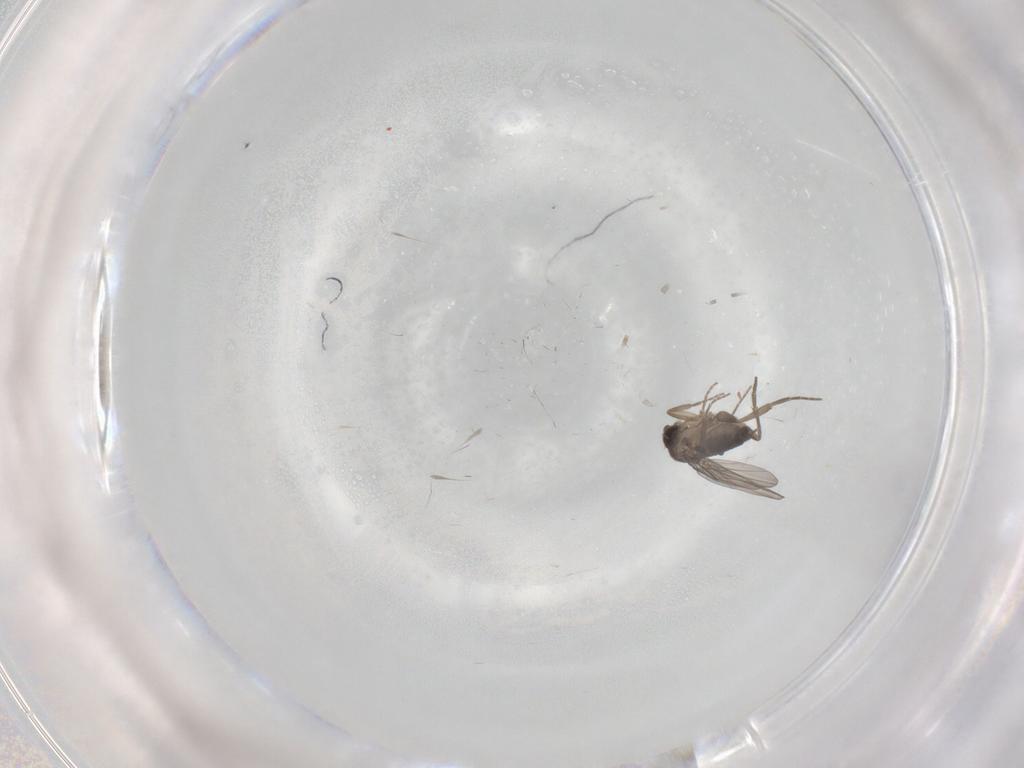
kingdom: Animalia
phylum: Arthropoda
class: Insecta
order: Diptera
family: Phoridae
